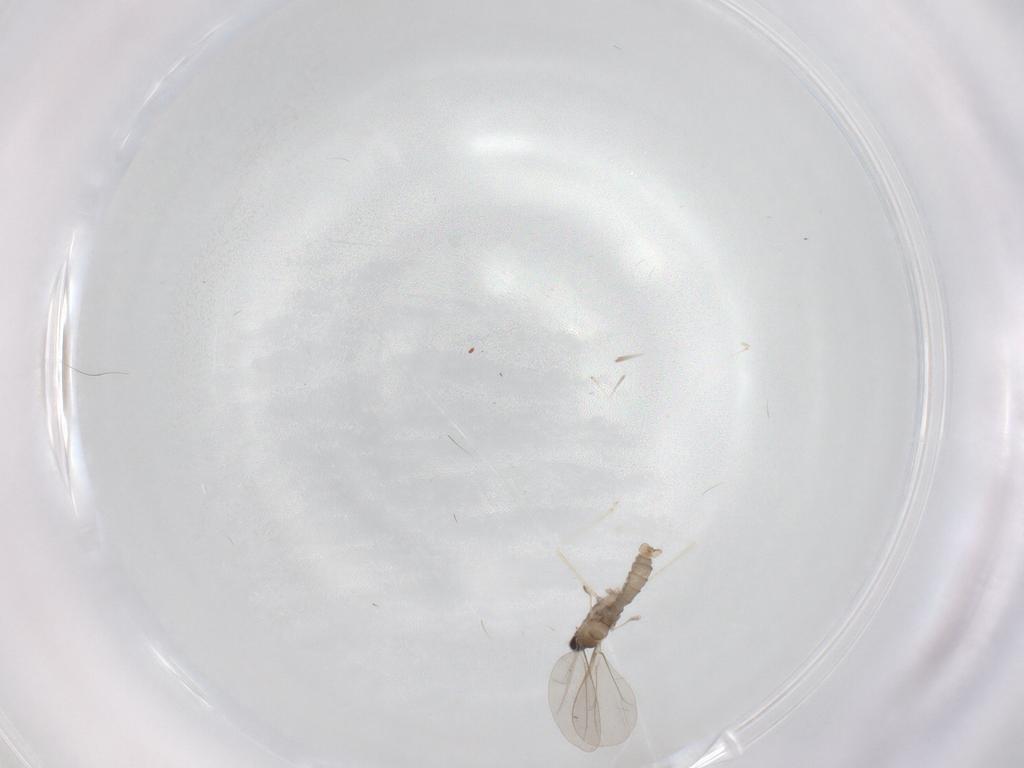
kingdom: Animalia
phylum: Arthropoda
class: Insecta
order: Diptera
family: Cecidomyiidae
